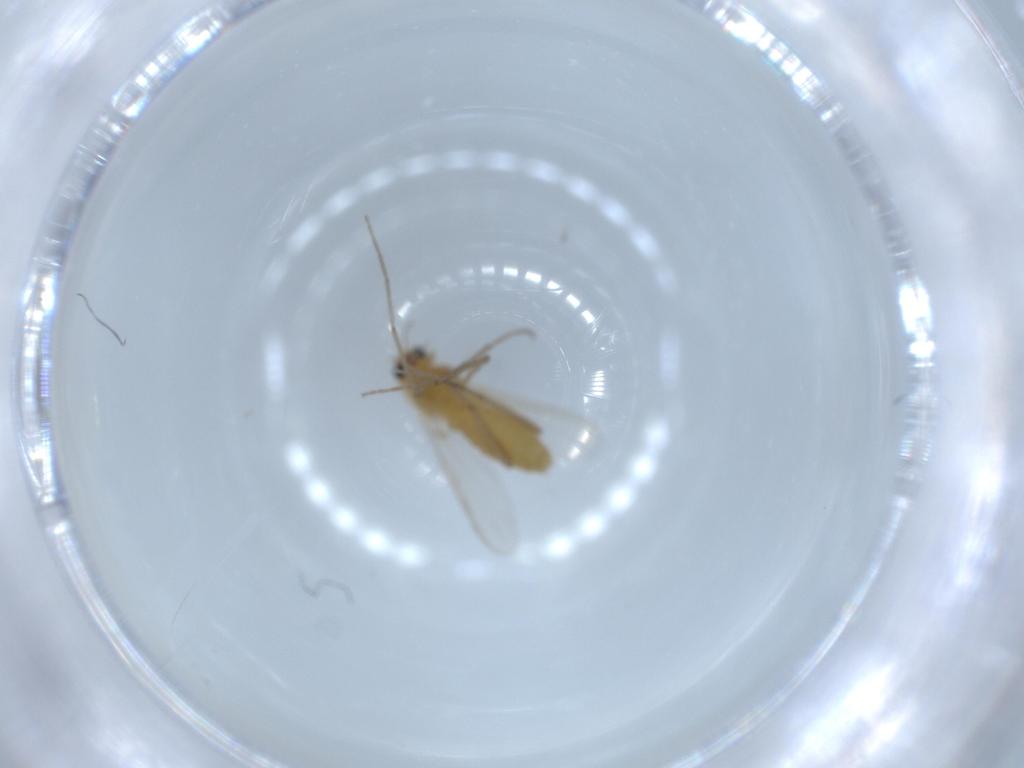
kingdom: Animalia
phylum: Arthropoda
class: Insecta
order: Diptera
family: Chironomidae
